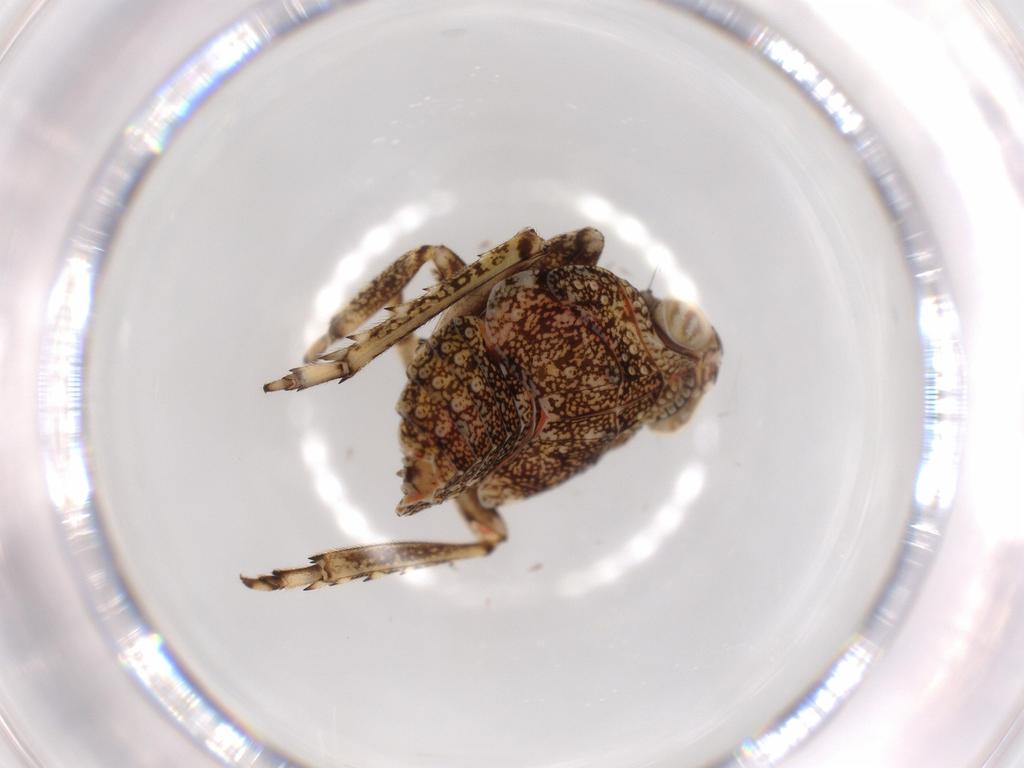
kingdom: Animalia
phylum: Arthropoda
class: Insecta
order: Hemiptera
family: Issidae
